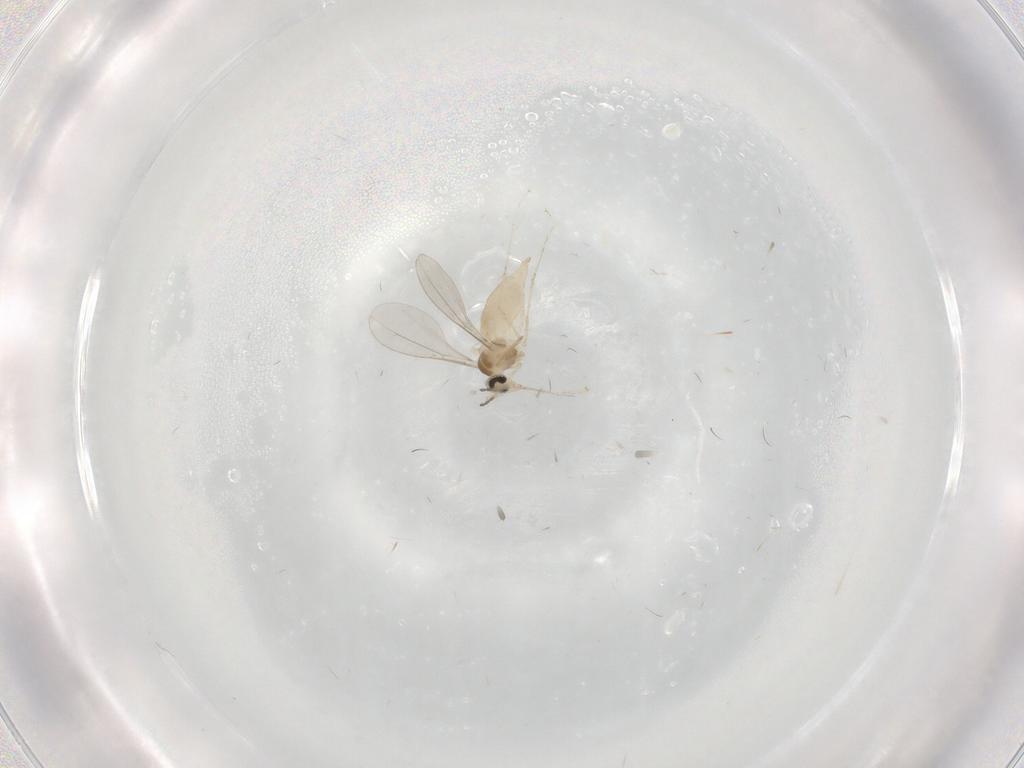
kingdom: Animalia
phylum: Arthropoda
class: Insecta
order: Diptera
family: Cecidomyiidae
